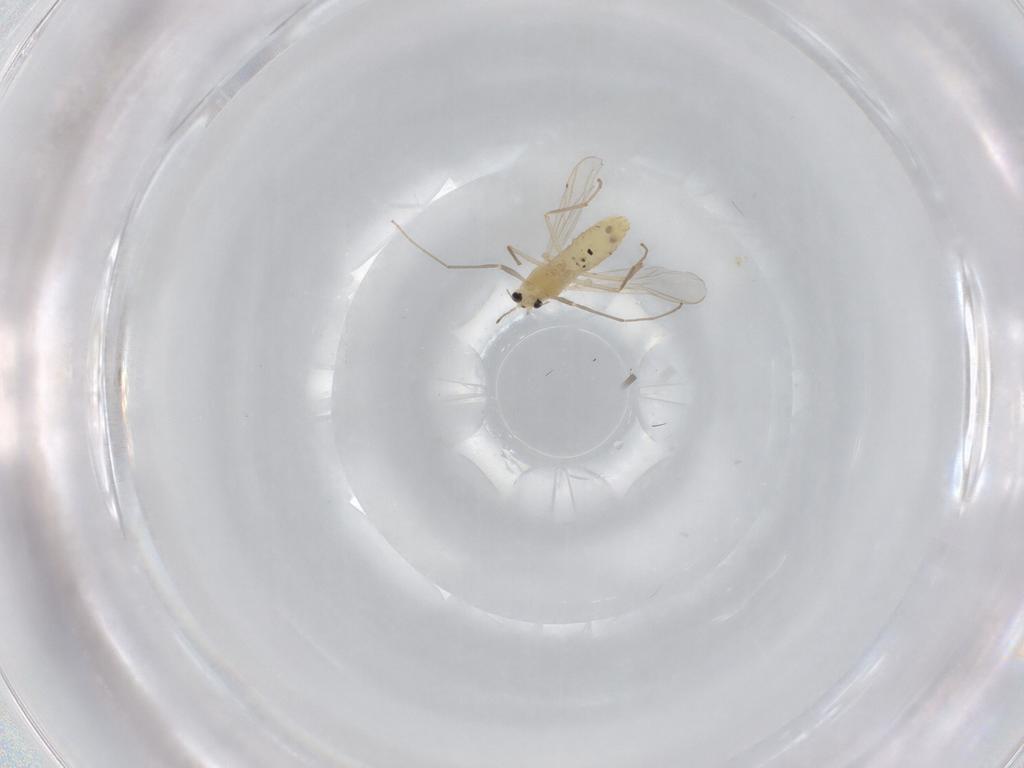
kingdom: Animalia
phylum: Arthropoda
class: Insecta
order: Diptera
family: Chironomidae
